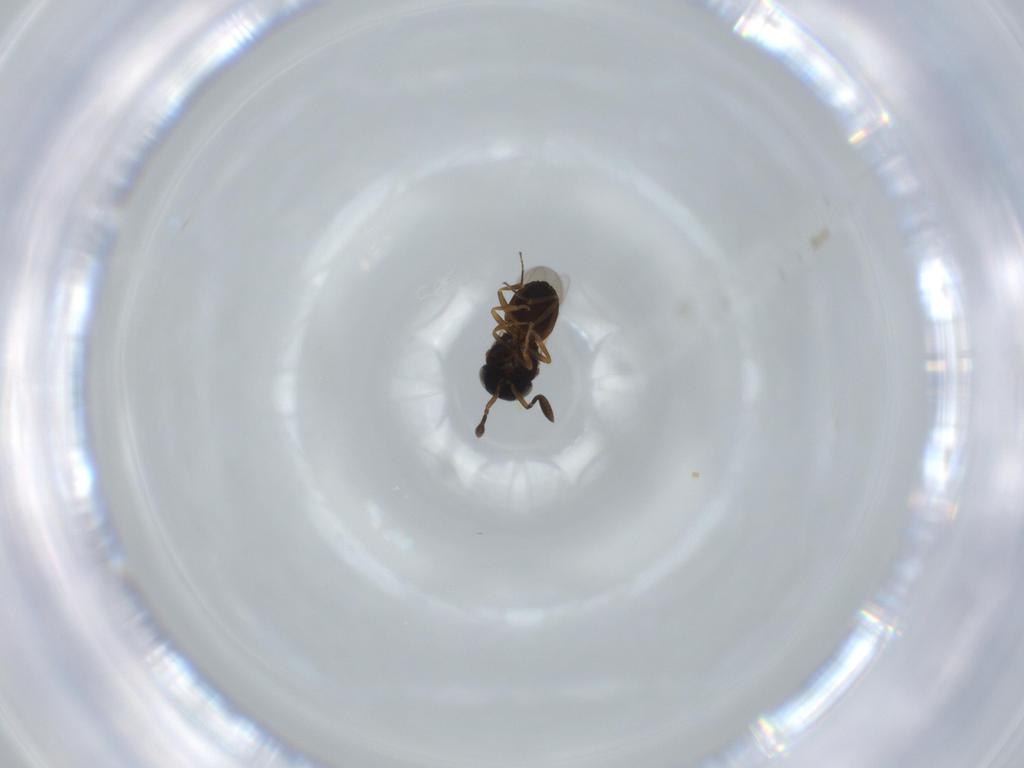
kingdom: Animalia
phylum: Arthropoda
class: Insecta
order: Hymenoptera
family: Scelionidae
